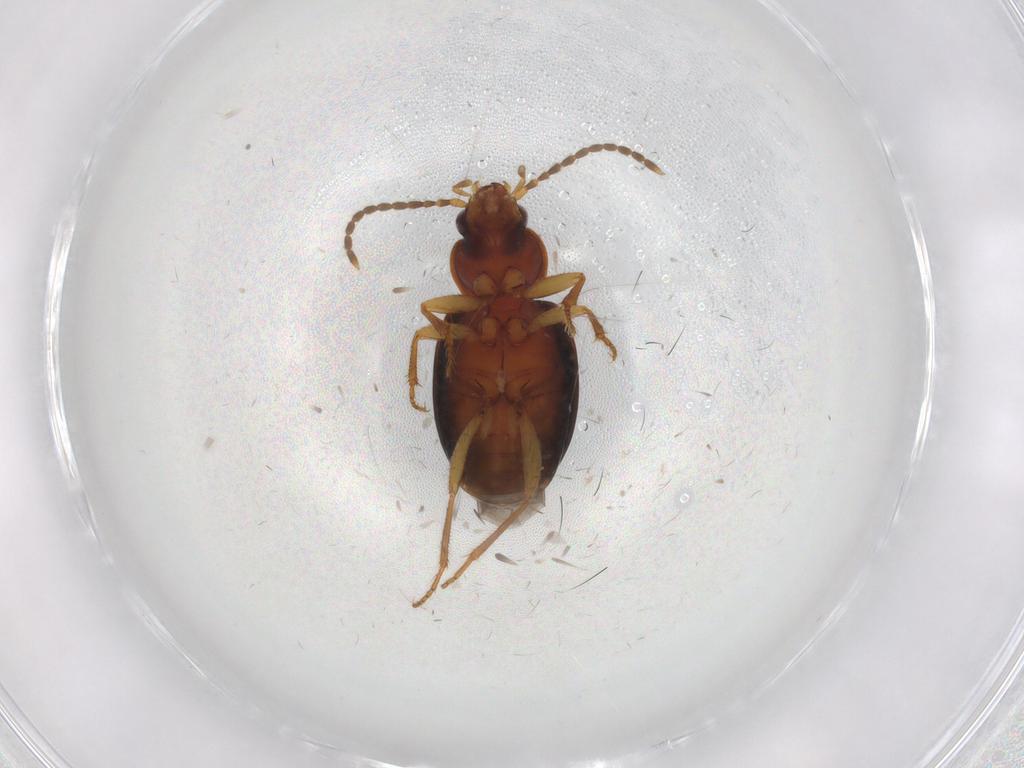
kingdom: Animalia
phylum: Arthropoda
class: Insecta
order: Coleoptera
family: Carabidae
